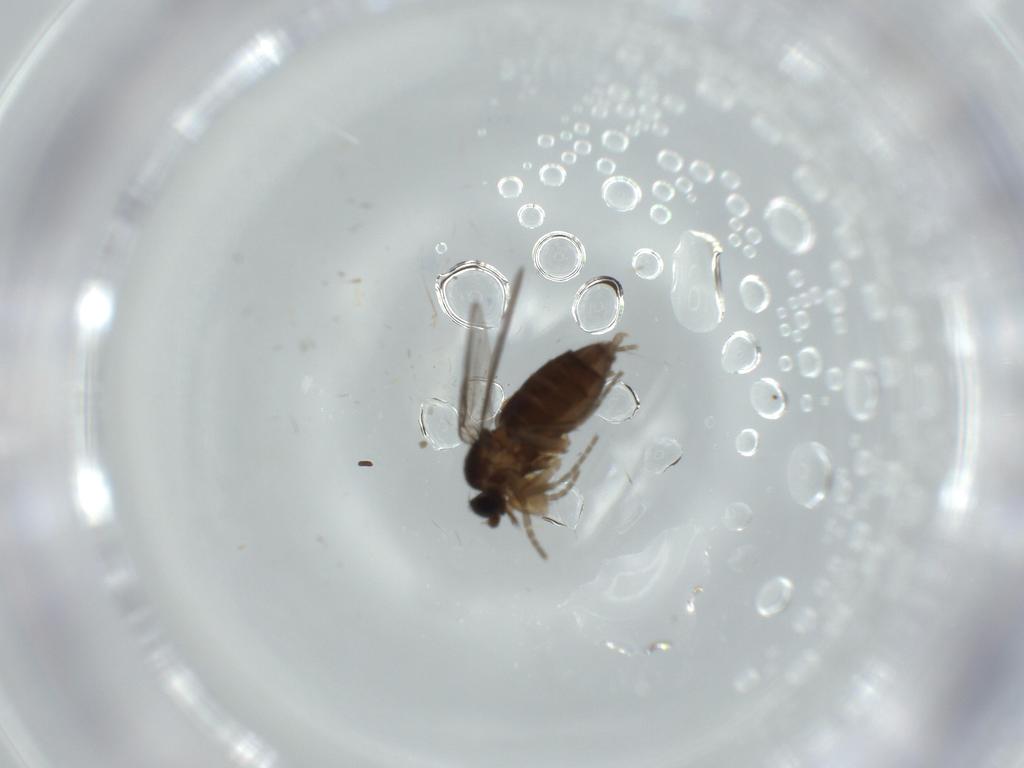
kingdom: Animalia
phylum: Arthropoda
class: Insecta
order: Diptera
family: Phoridae
